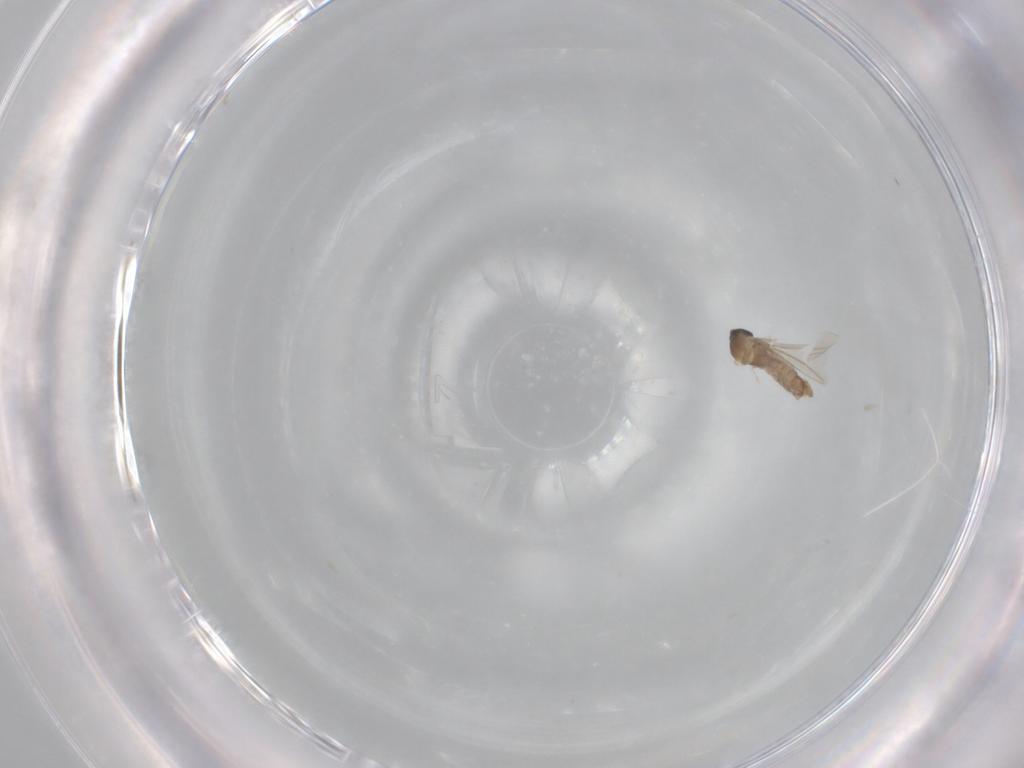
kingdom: Animalia
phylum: Arthropoda
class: Insecta
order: Diptera
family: Cecidomyiidae
